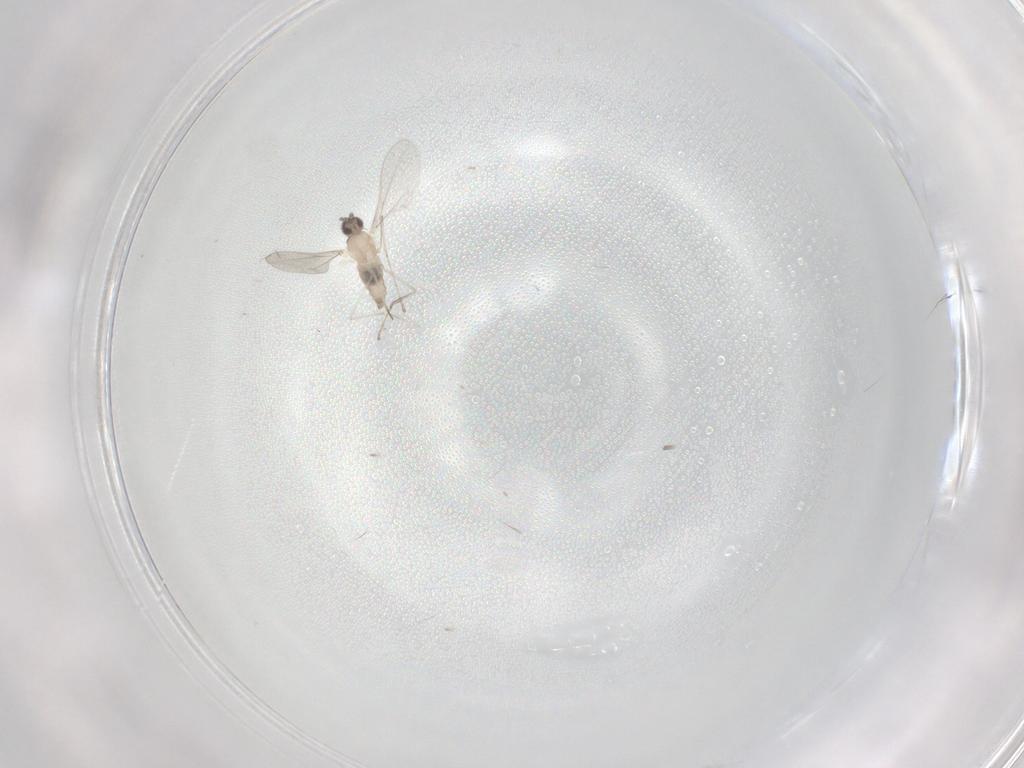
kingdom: Animalia
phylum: Arthropoda
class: Insecta
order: Diptera
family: Cecidomyiidae
